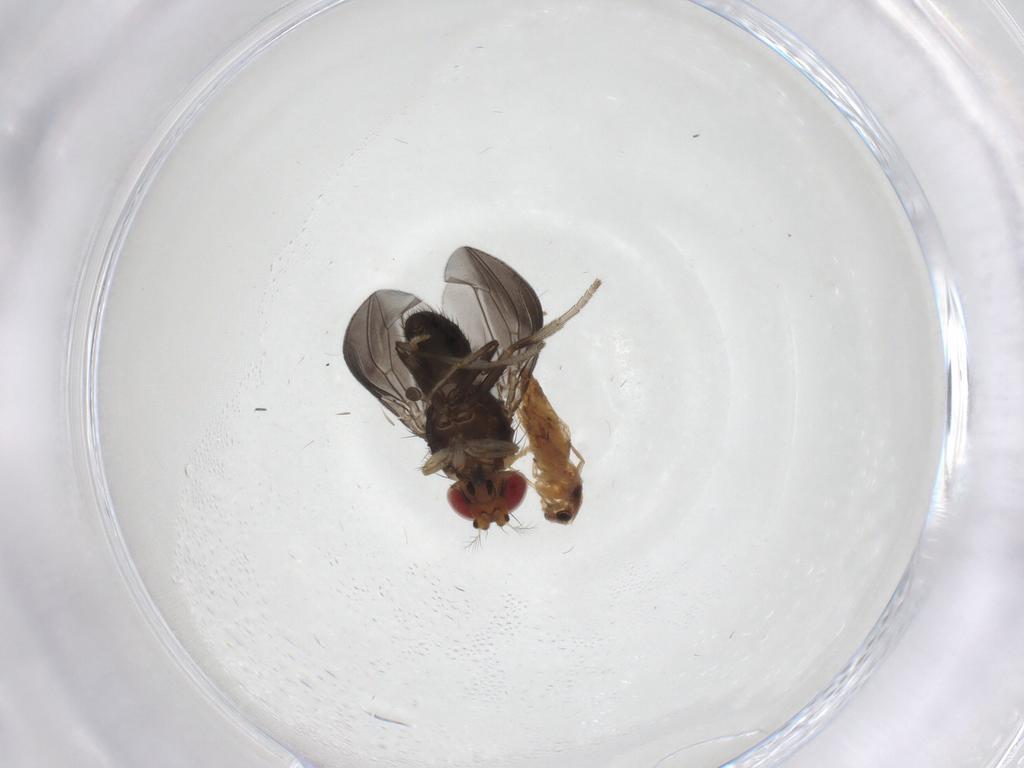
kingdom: Animalia
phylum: Arthropoda
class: Insecta
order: Diptera
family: Chironomidae
